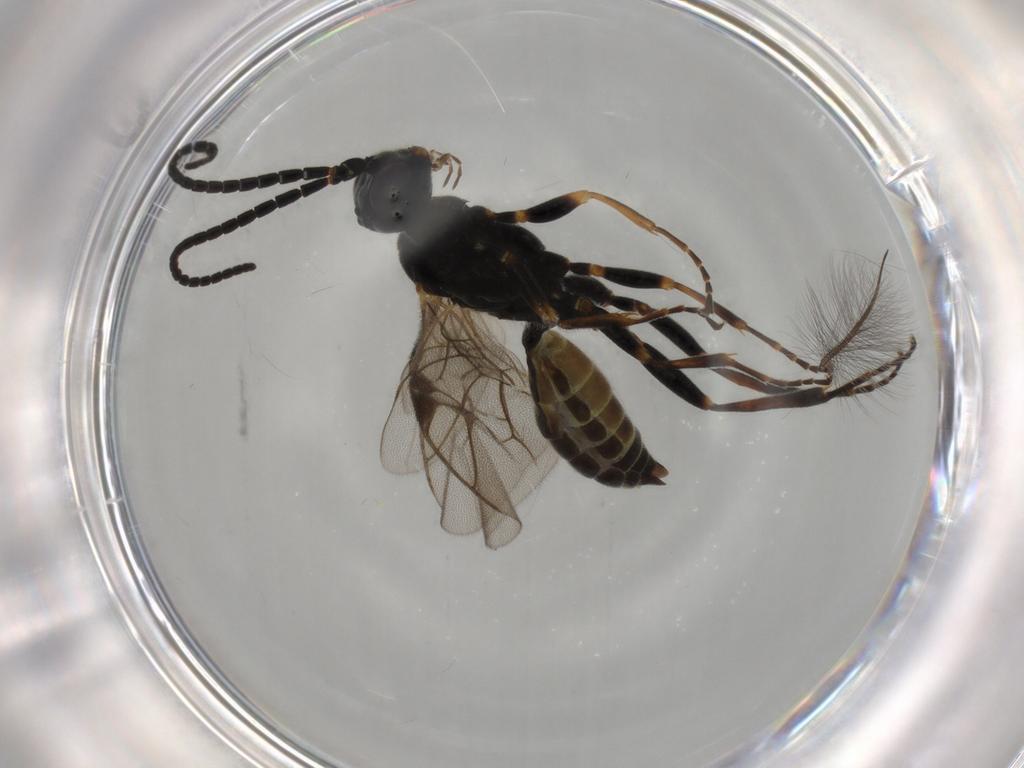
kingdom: Animalia
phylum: Arthropoda
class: Insecta
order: Hymenoptera
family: Ichneumonidae
